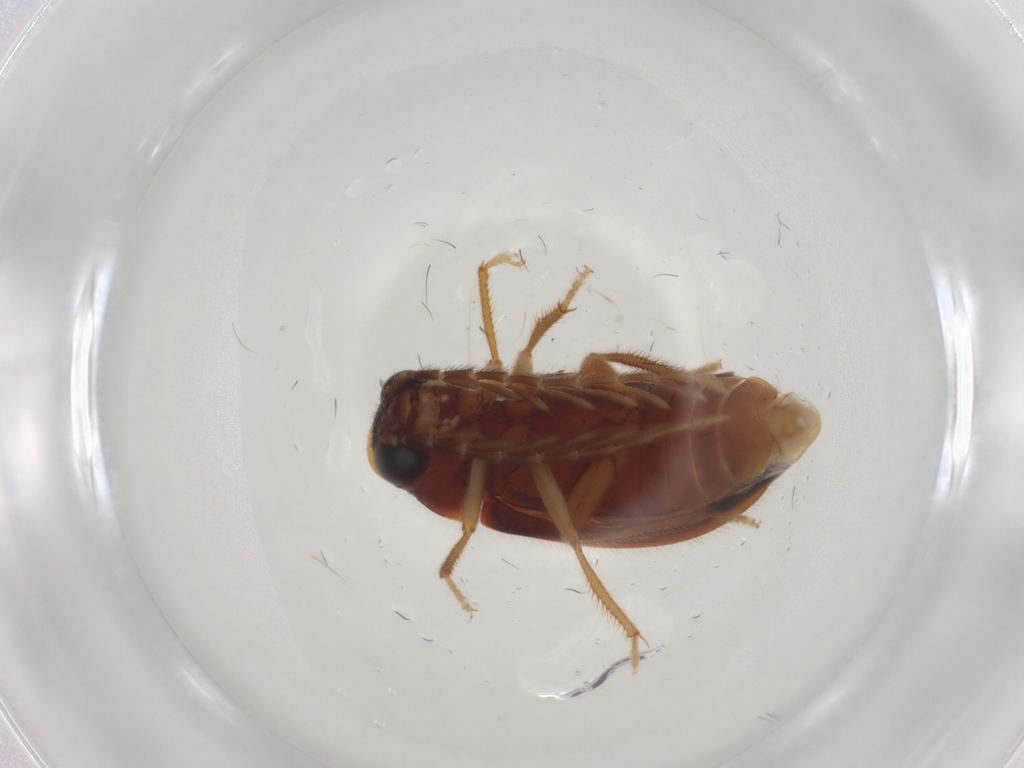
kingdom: Animalia
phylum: Arthropoda
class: Insecta
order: Coleoptera
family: Ptilodactylidae
